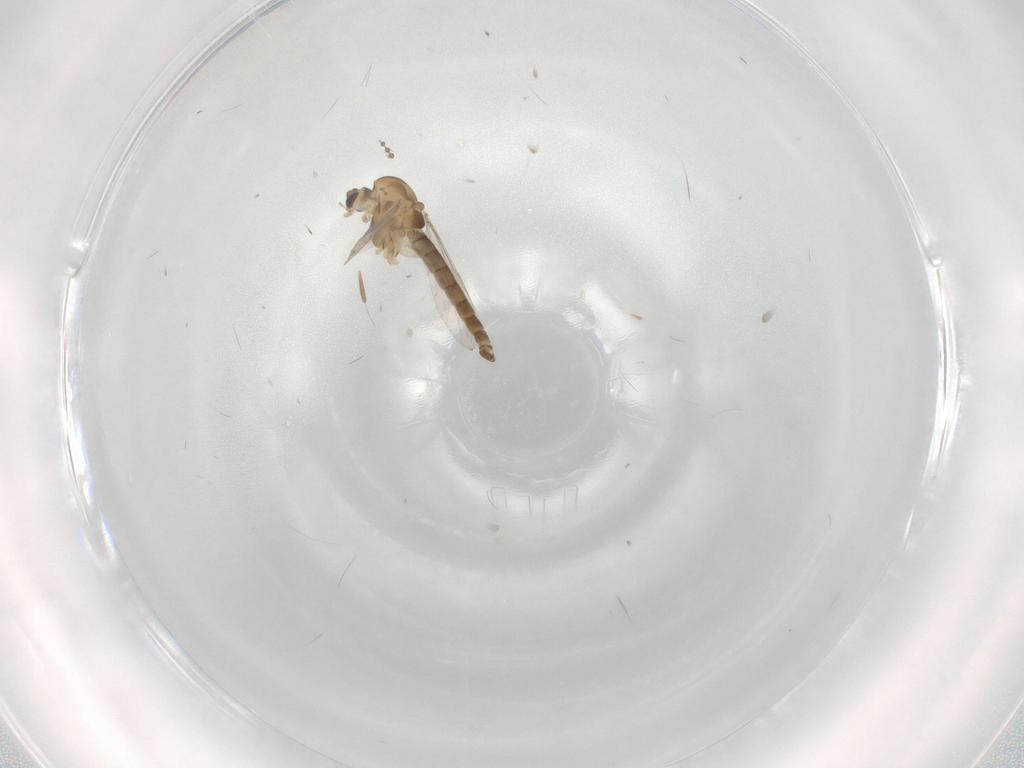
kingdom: Animalia
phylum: Arthropoda
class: Insecta
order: Diptera
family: Chironomidae
